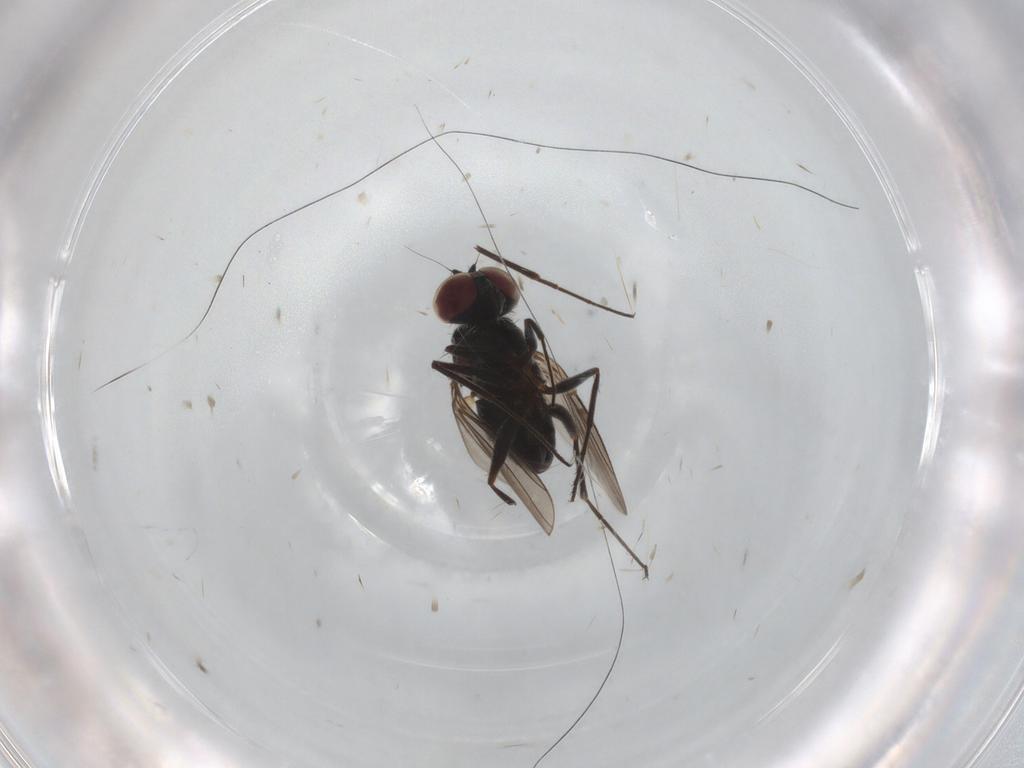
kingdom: Animalia
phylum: Arthropoda
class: Insecta
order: Diptera
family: Dolichopodidae
